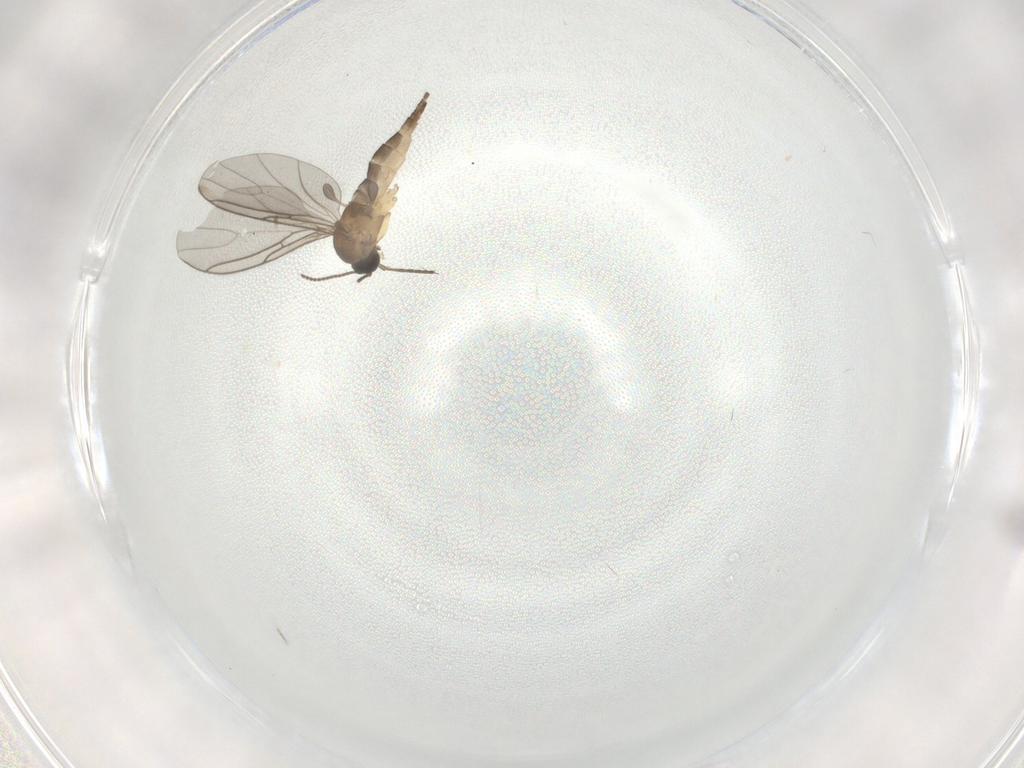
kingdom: Animalia
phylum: Arthropoda
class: Insecta
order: Diptera
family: Sciaridae
